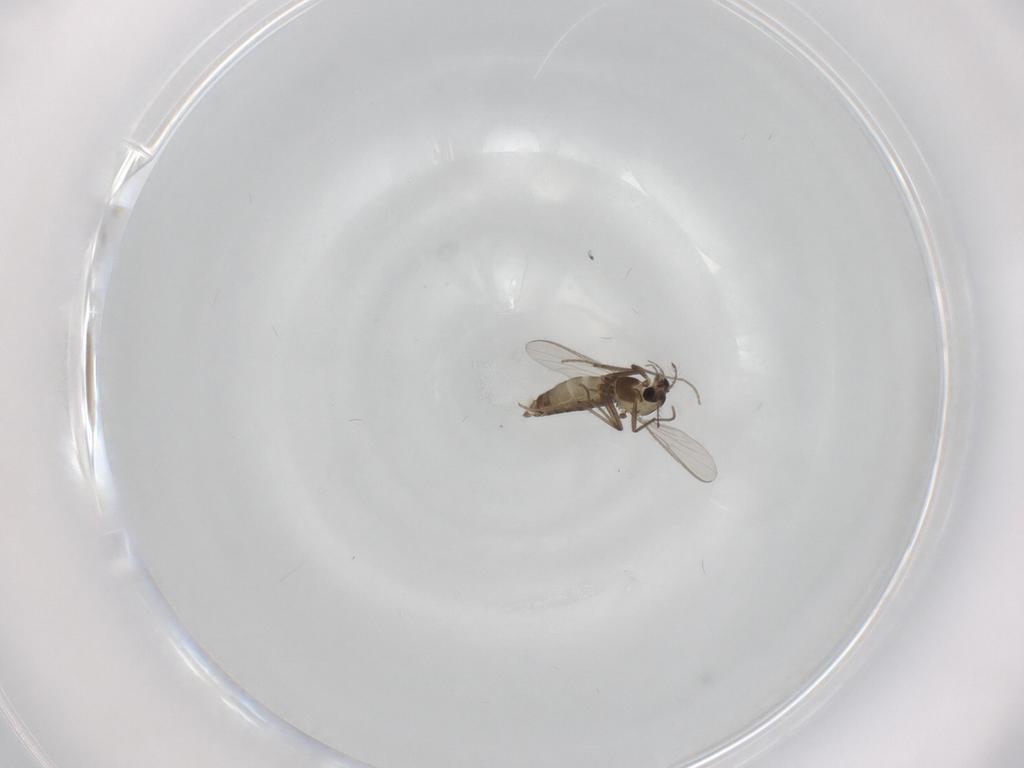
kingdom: Animalia
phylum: Arthropoda
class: Insecta
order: Diptera
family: Chironomidae
